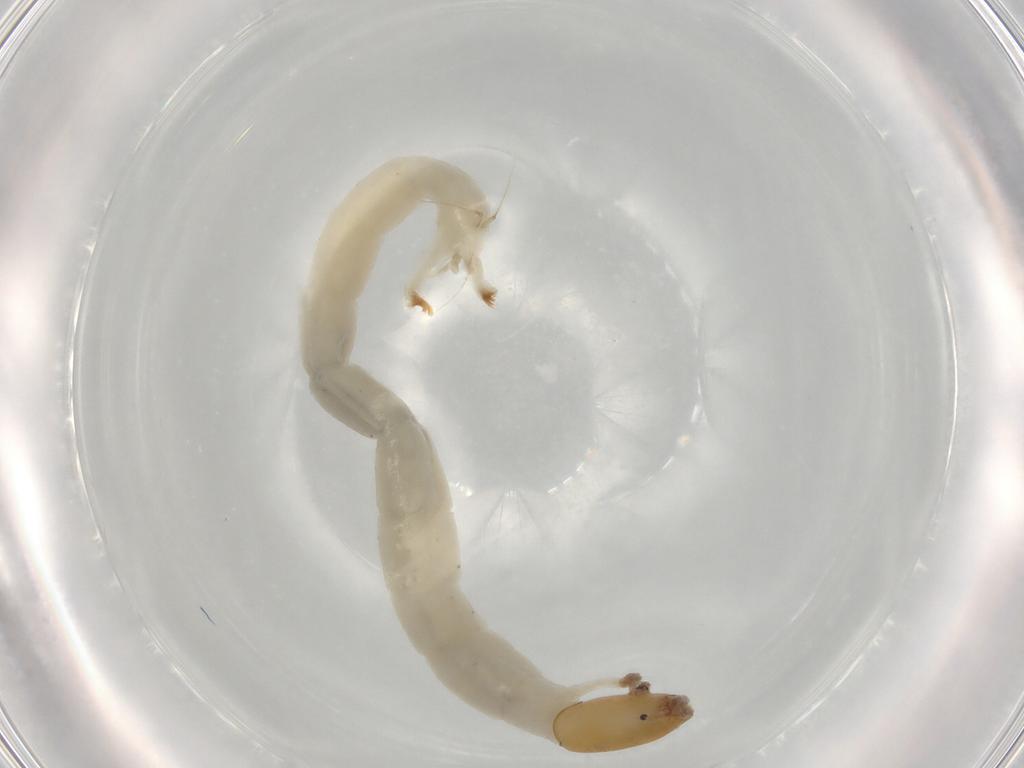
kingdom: Animalia
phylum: Arthropoda
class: Insecta
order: Diptera
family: Chironomidae
